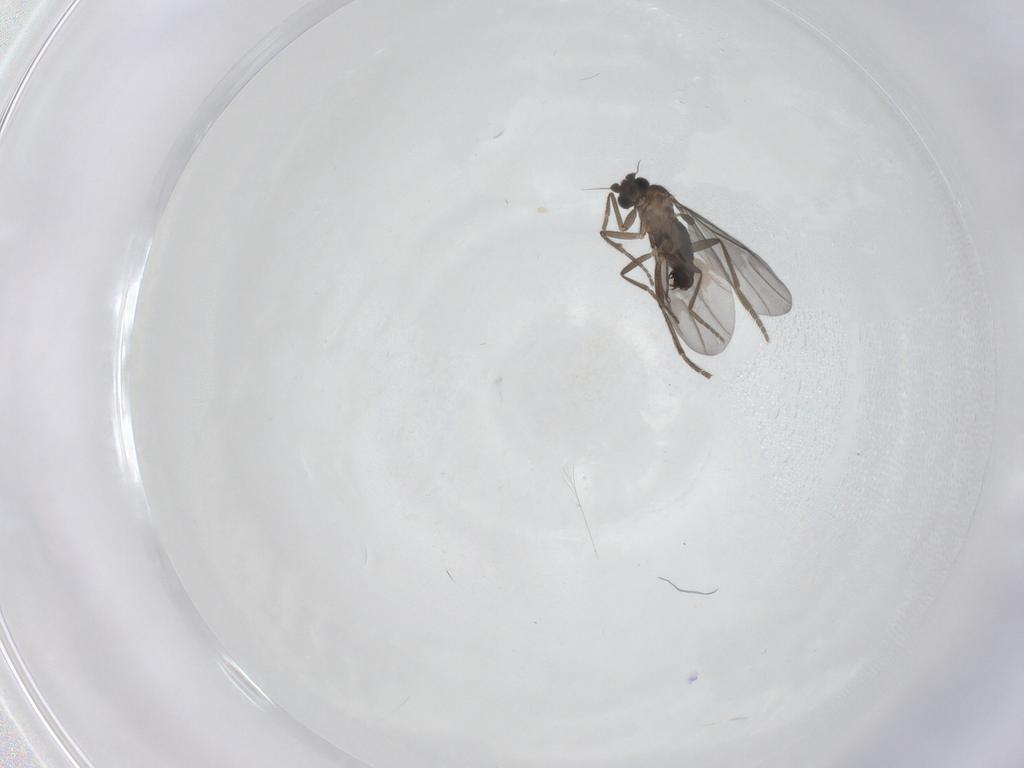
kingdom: Animalia
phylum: Arthropoda
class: Insecta
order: Diptera
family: Phoridae
